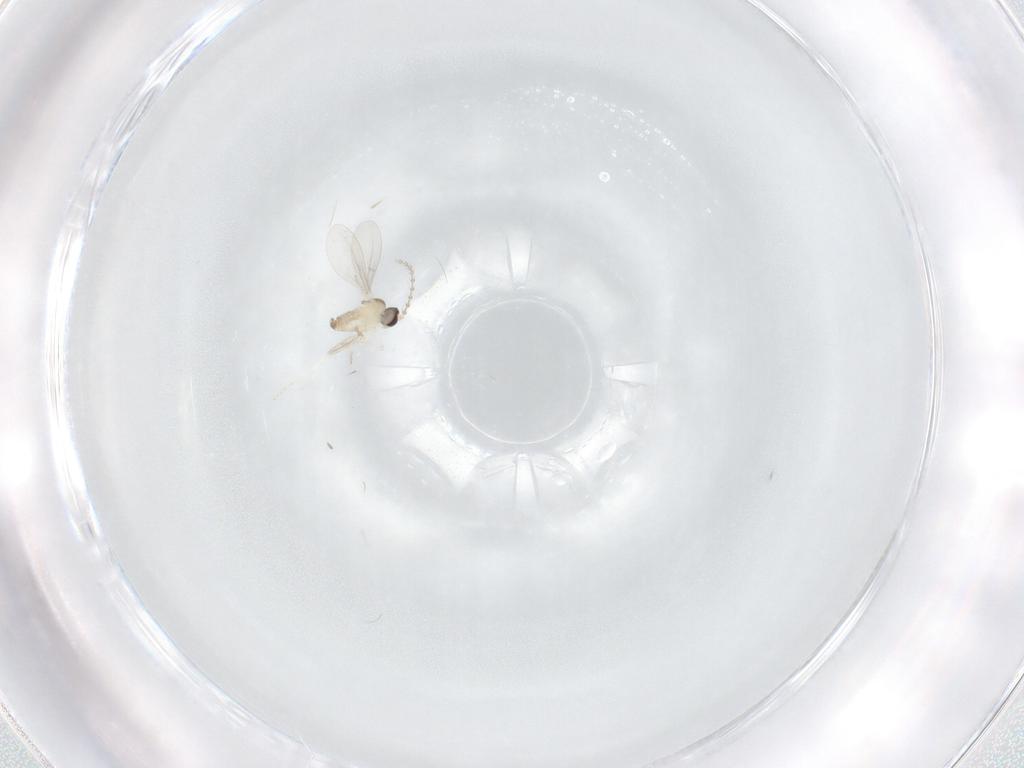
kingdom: Animalia
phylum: Arthropoda
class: Insecta
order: Diptera
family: Cecidomyiidae
